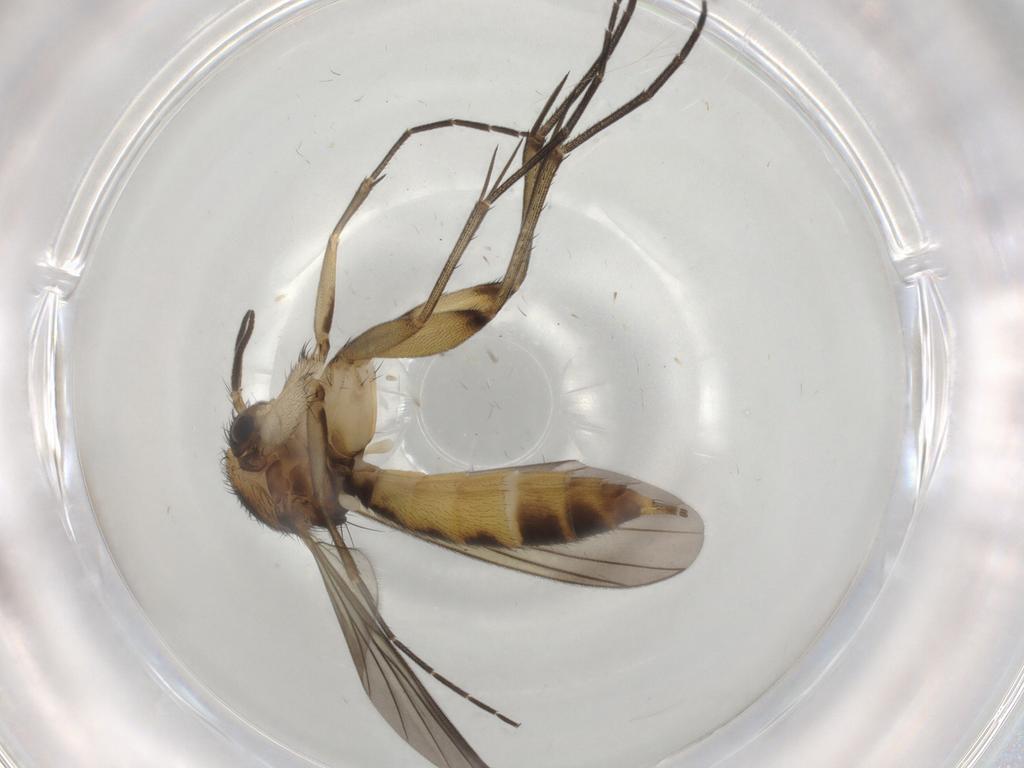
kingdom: Animalia
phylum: Arthropoda
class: Insecta
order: Diptera
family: Mycetophilidae
